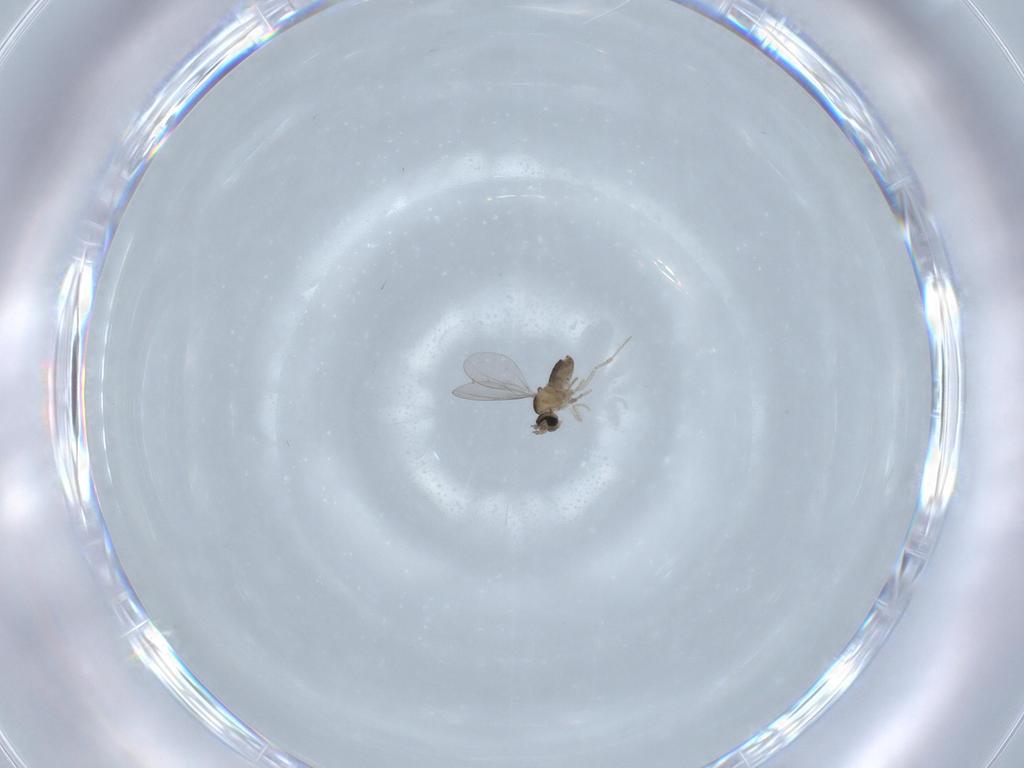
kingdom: Animalia
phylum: Arthropoda
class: Insecta
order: Diptera
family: Cecidomyiidae
